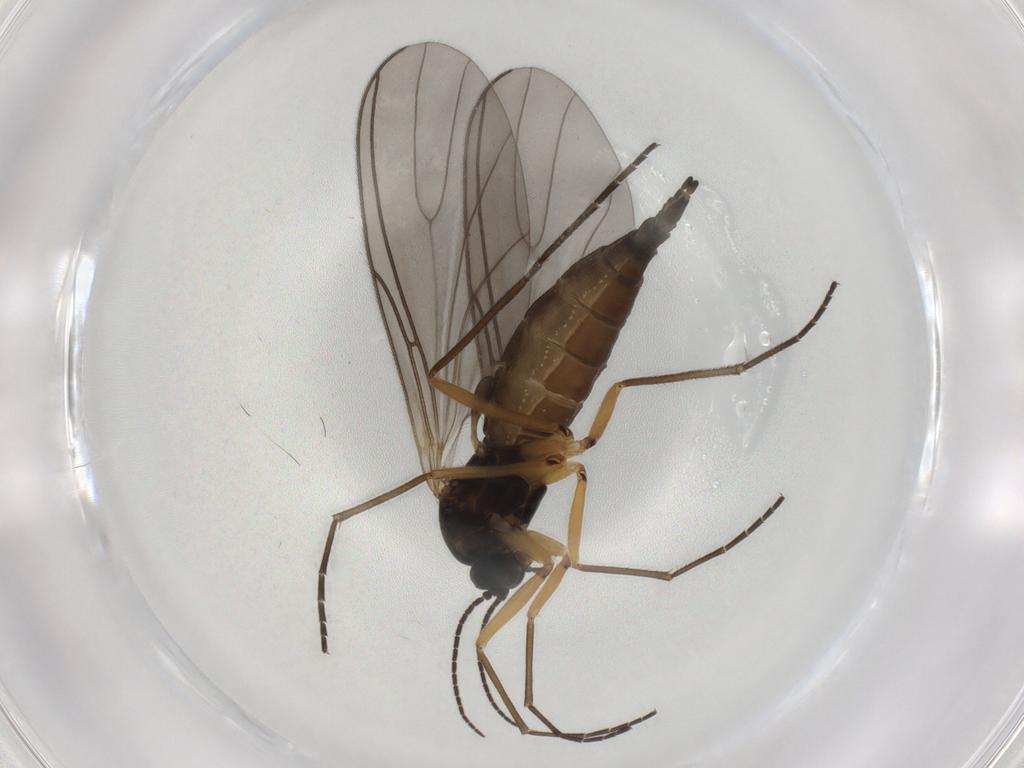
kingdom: Animalia
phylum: Arthropoda
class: Insecta
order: Diptera
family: Sciaridae
